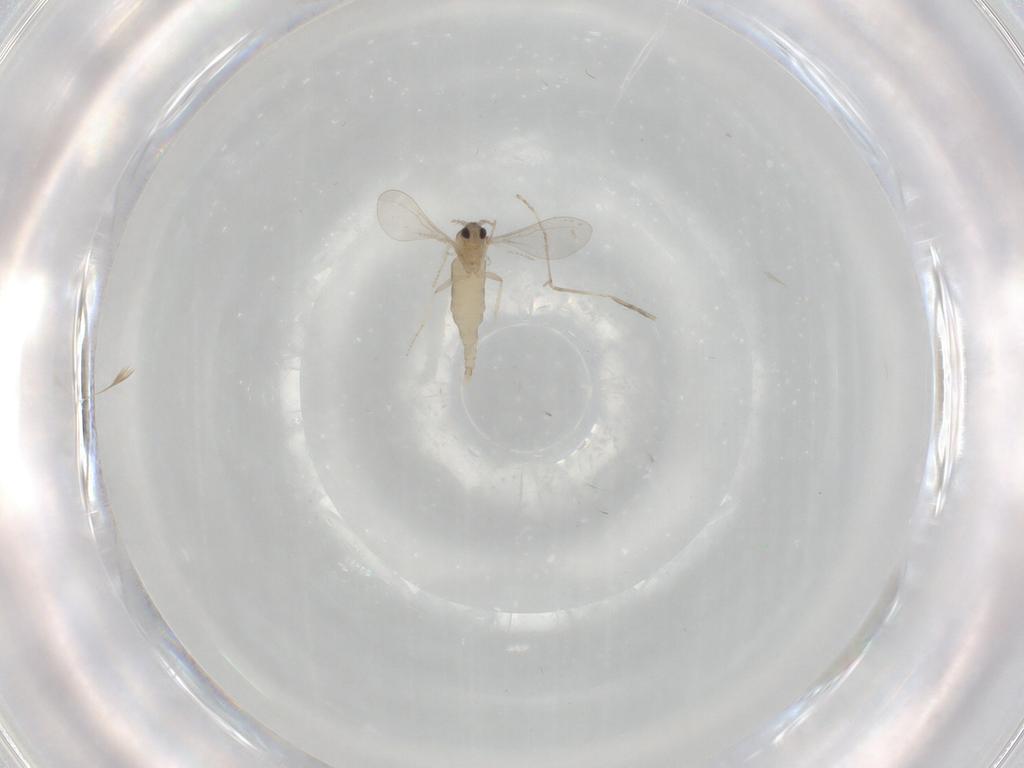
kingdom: Animalia
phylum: Arthropoda
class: Insecta
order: Diptera
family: Cecidomyiidae
